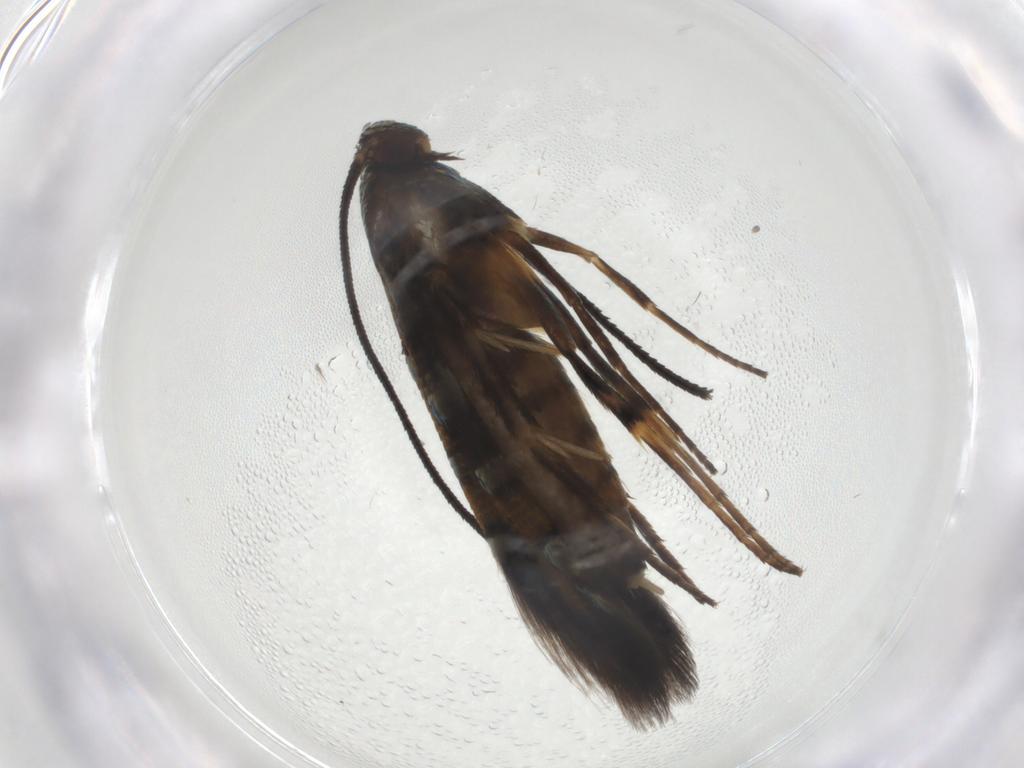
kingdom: Animalia
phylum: Arthropoda
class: Insecta
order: Lepidoptera
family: Heliodinidae
